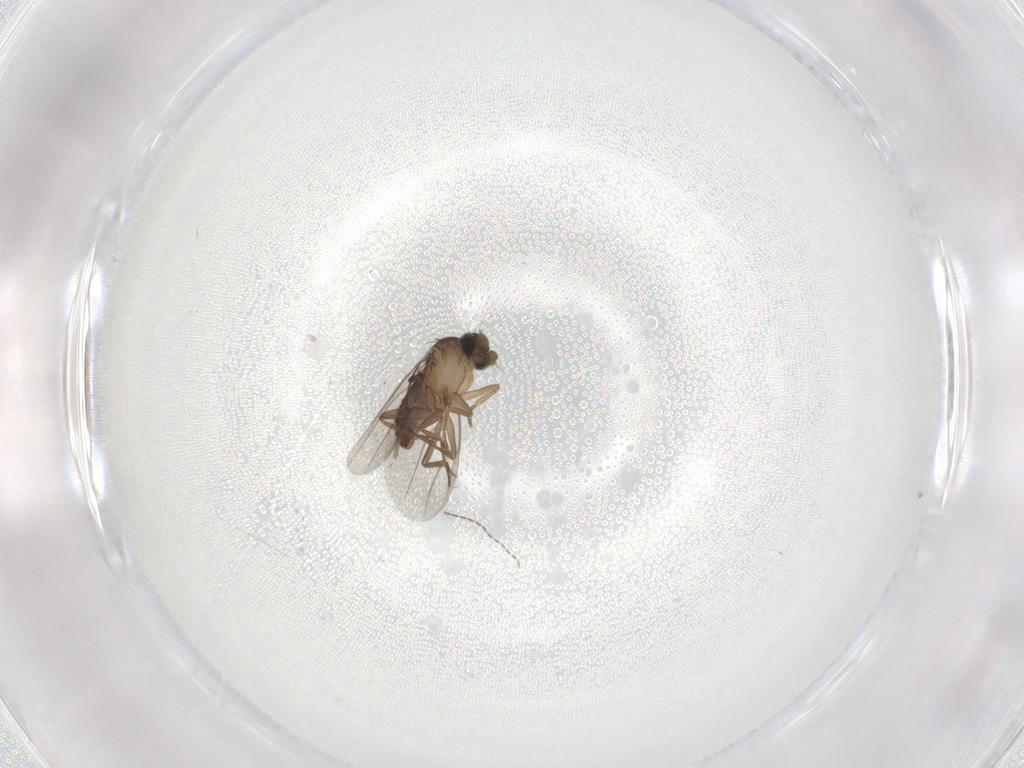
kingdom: Animalia
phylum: Arthropoda
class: Insecta
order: Diptera
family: Phoridae
